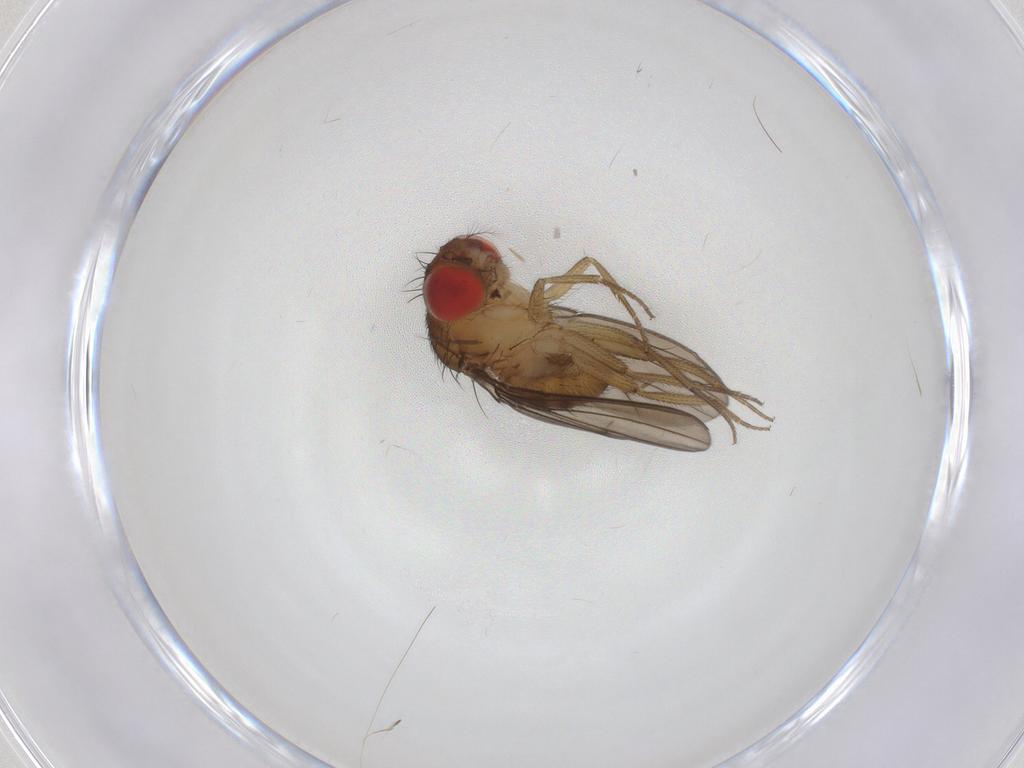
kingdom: Animalia
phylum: Arthropoda
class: Insecta
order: Diptera
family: Drosophilidae
